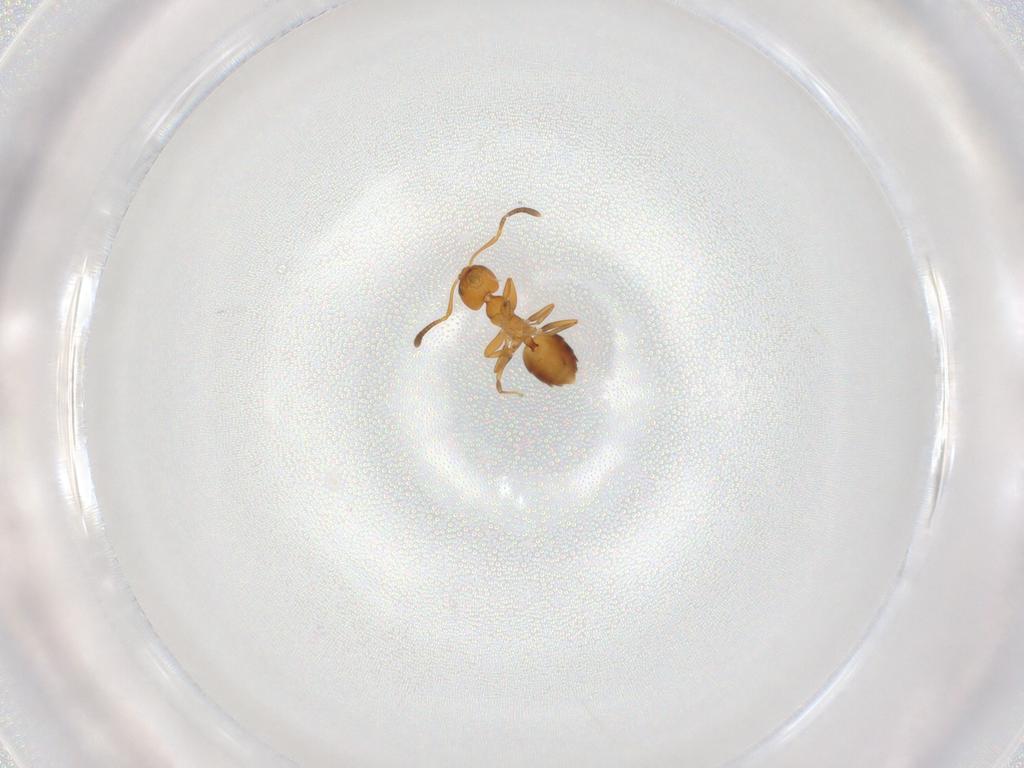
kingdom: Animalia
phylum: Arthropoda
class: Insecta
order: Hymenoptera
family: Formicidae
